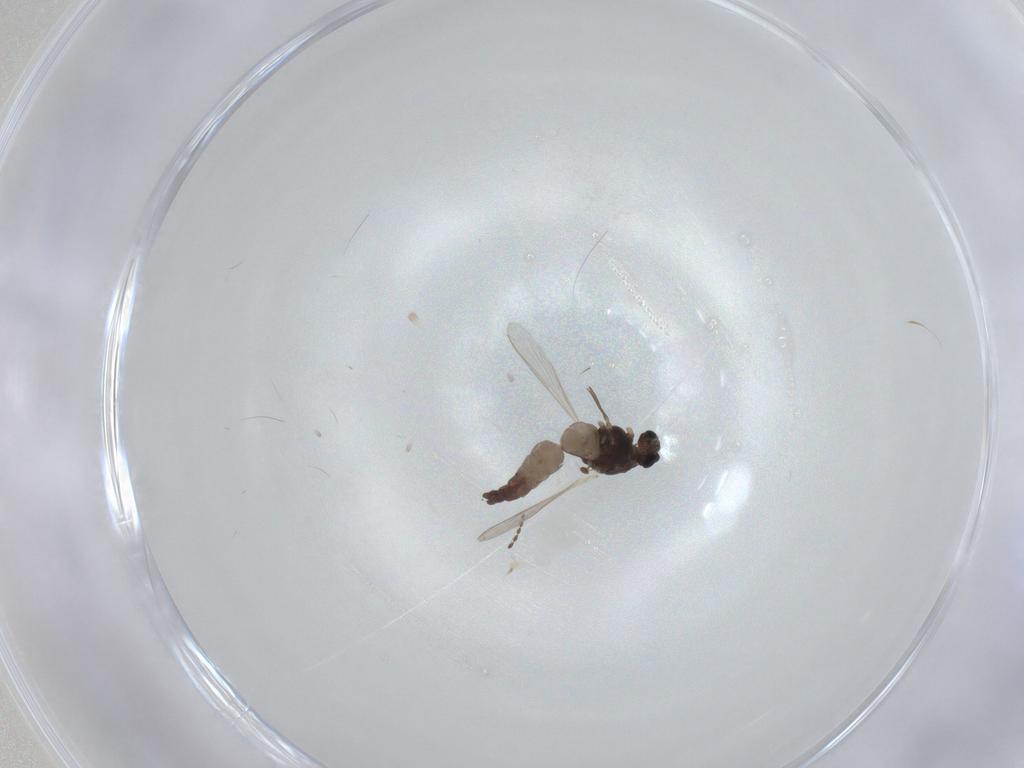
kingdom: Animalia
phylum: Arthropoda
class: Insecta
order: Diptera
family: Chironomidae
